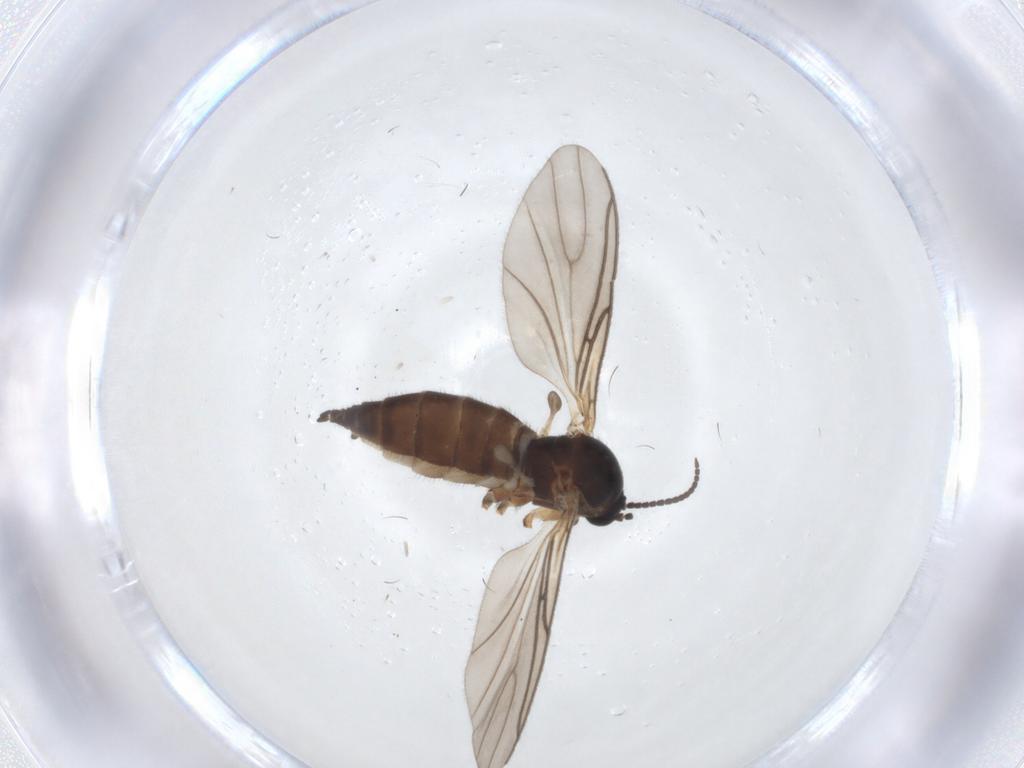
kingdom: Animalia
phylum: Arthropoda
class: Insecta
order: Diptera
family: Sciaridae
